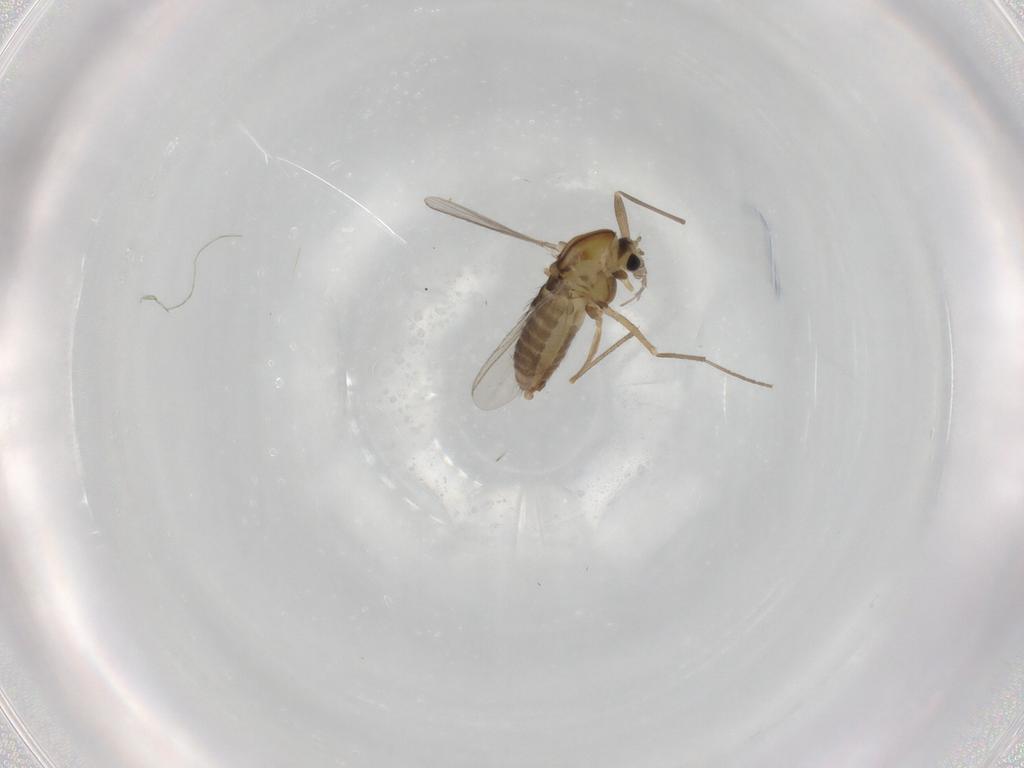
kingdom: Animalia
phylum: Arthropoda
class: Insecta
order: Diptera
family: Chironomidae
